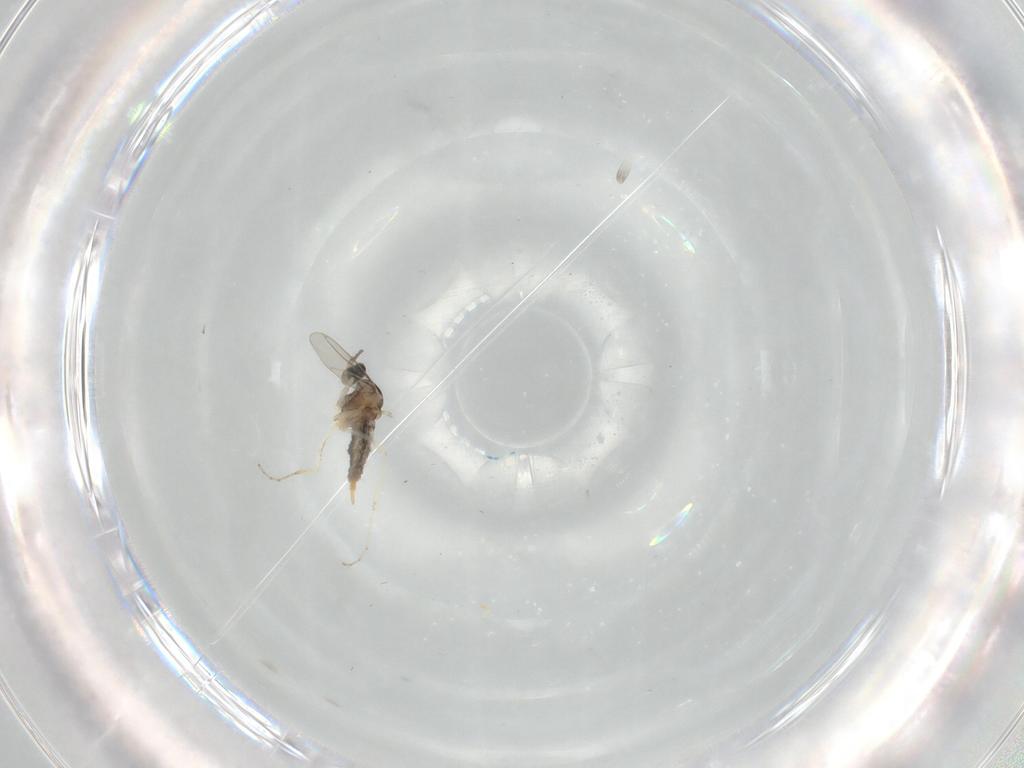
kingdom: Animalia
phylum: Arthropoda
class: Insecta
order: Diptera
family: Cecidomyiidae
